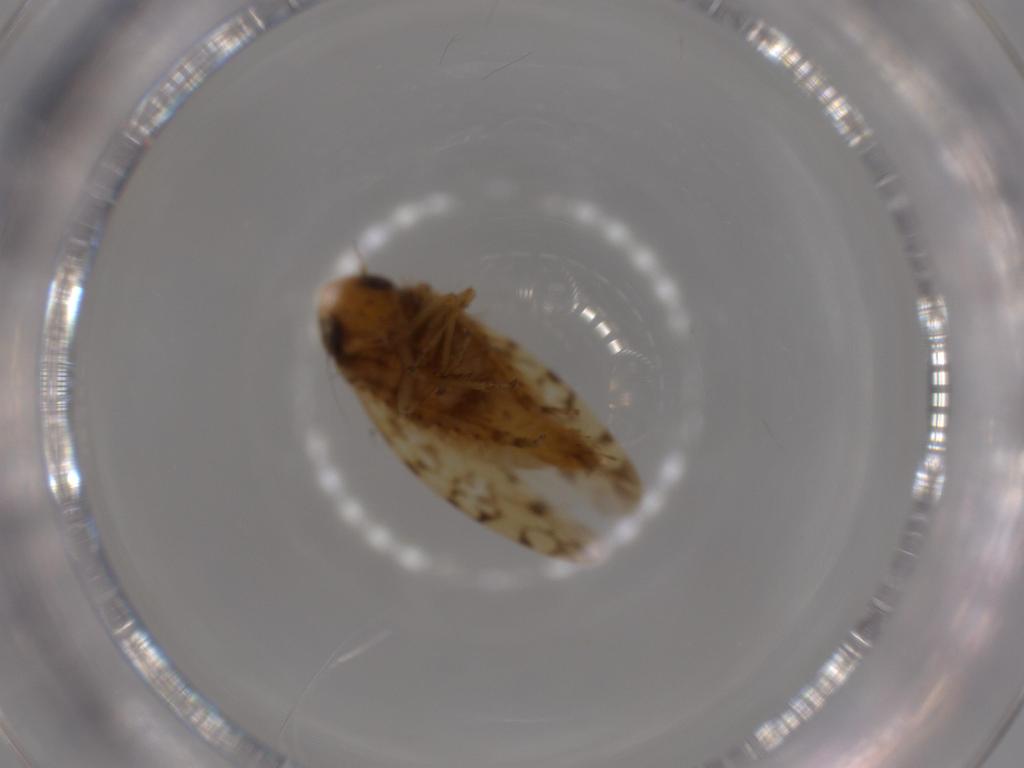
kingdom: Animalia
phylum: Arthropoda
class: Insecta
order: Hemiptera
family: Cicadellidae
